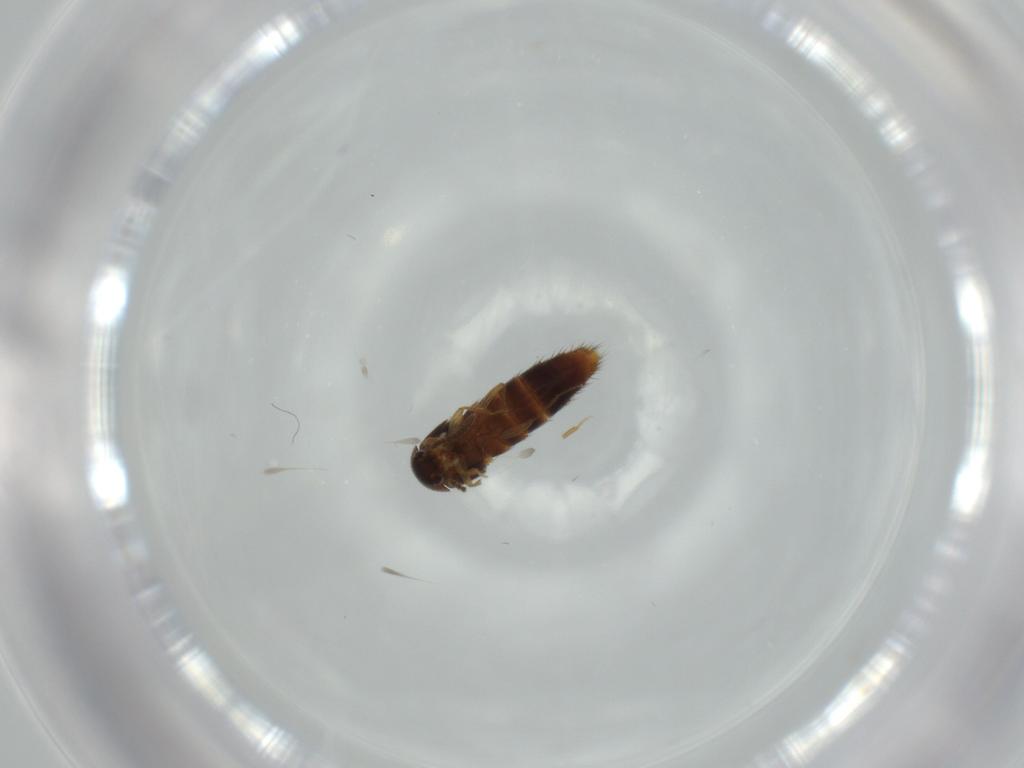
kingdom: Animalia
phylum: Arthropoda
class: Insecta
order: Coleoptera
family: Staphylinidae
